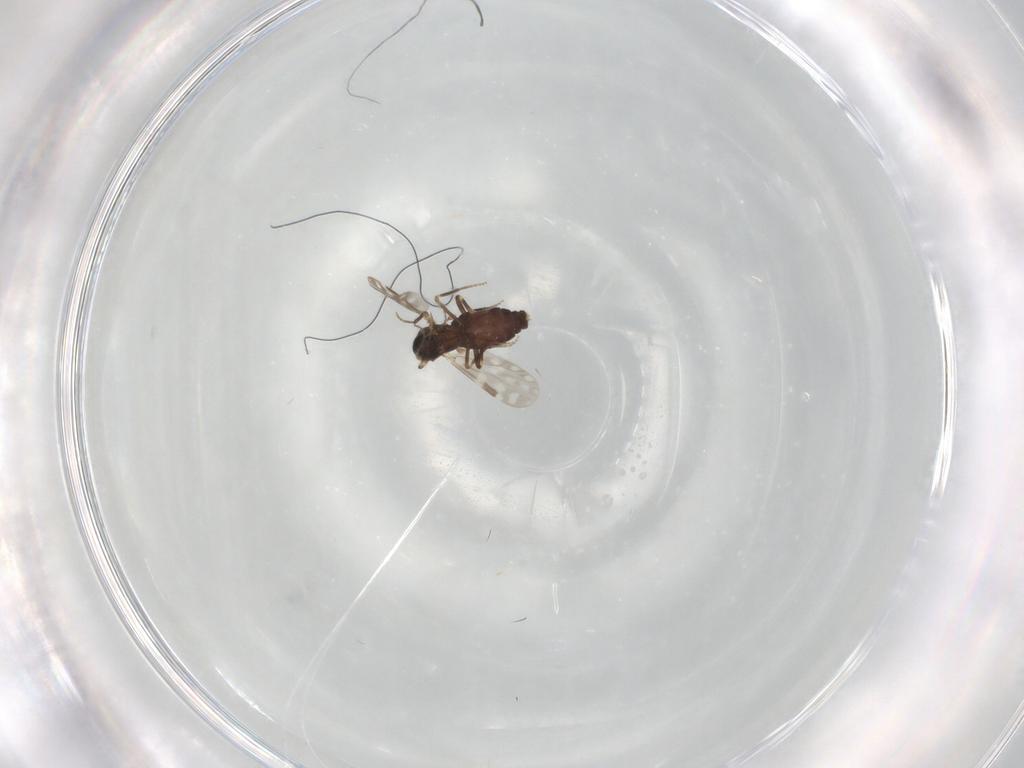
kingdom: Animalia
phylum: Arthropoda
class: Insecta
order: Diptera
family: Ceratopogonidae
